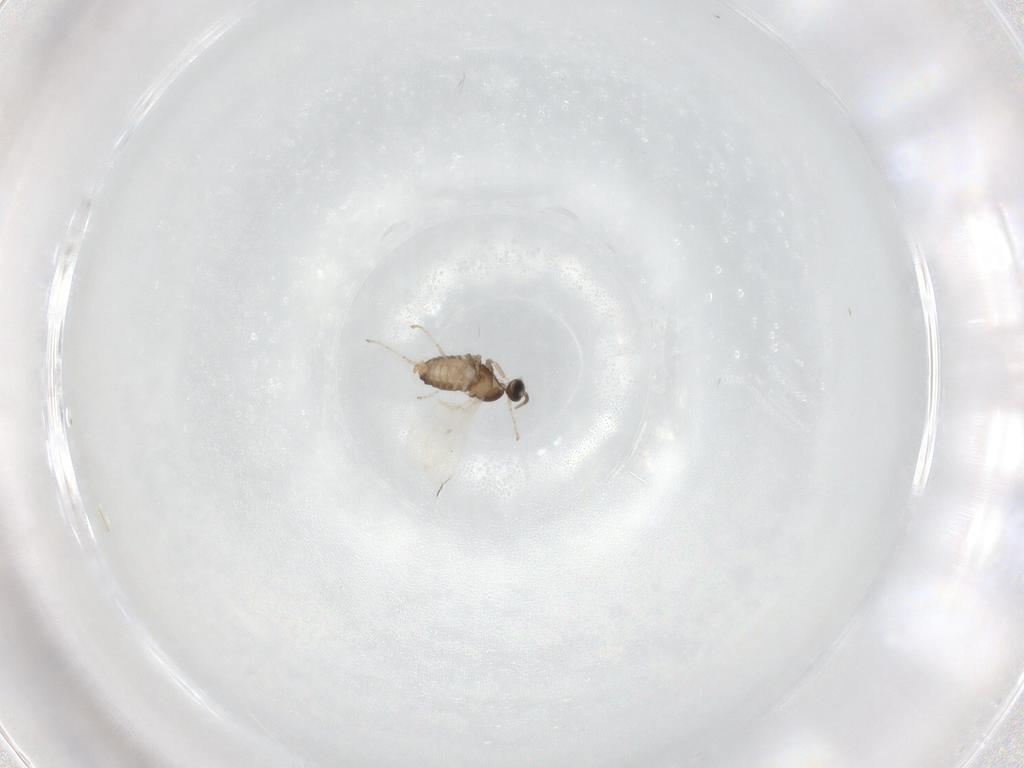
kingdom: Animalia
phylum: Arthropoda
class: Insecta
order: Diptera
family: Cecidomyiidae
